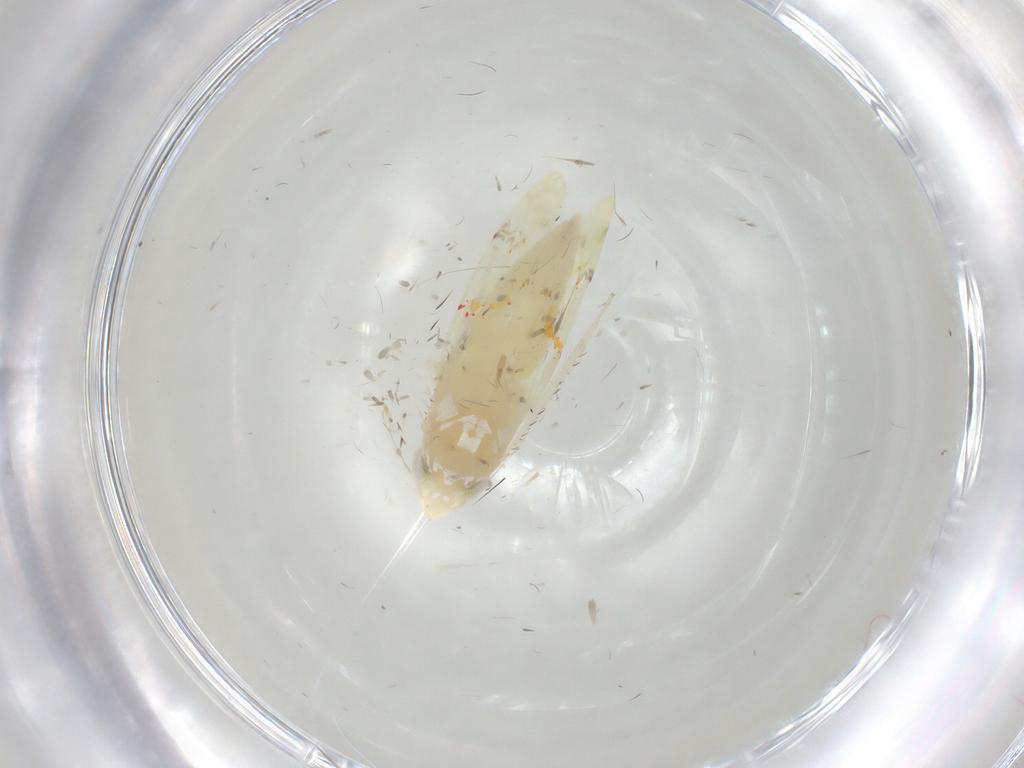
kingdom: Animalia
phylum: Arthropoda
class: Insecta
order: Hemiptera
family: Cicadellidae
